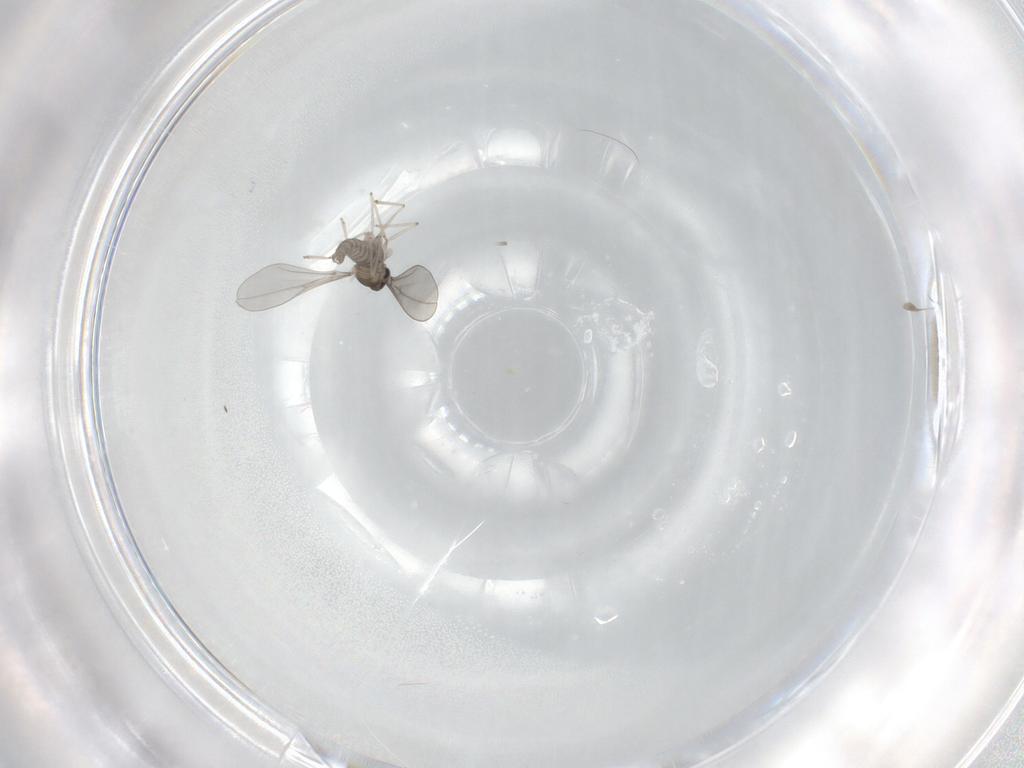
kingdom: Animalia
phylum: Arthropoda
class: Insecta
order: Diptera
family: Cecidomyiidae
